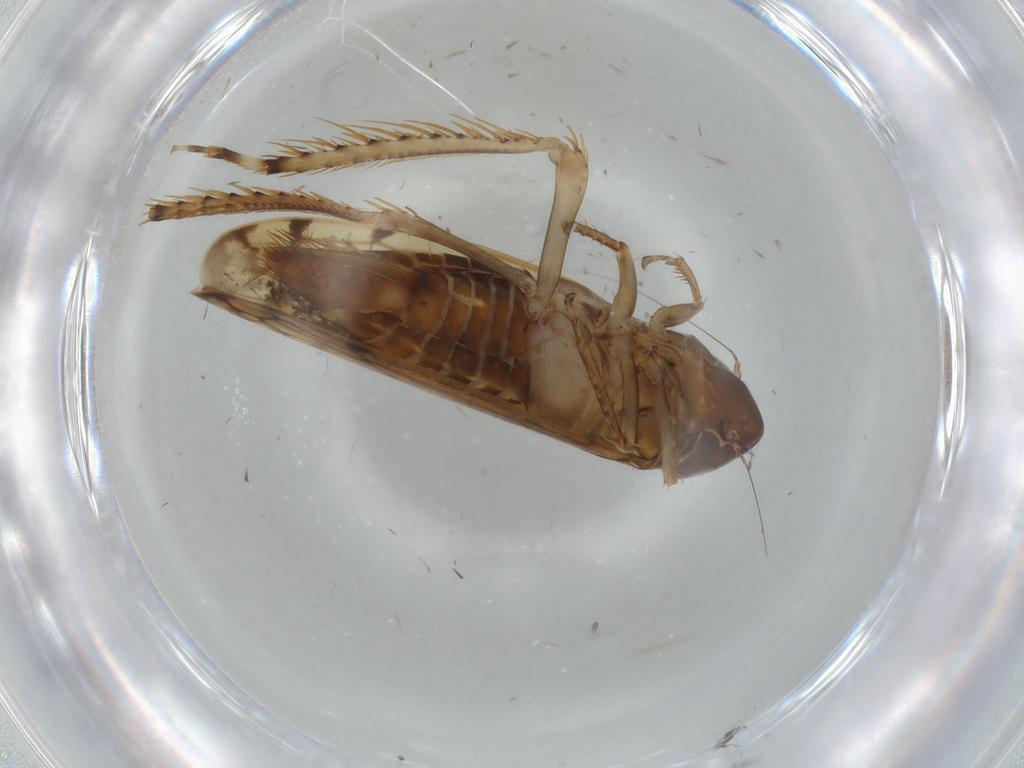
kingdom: Animalia
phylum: Arthropoda
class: Insecta
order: Hemiptera
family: Cicadellidae
